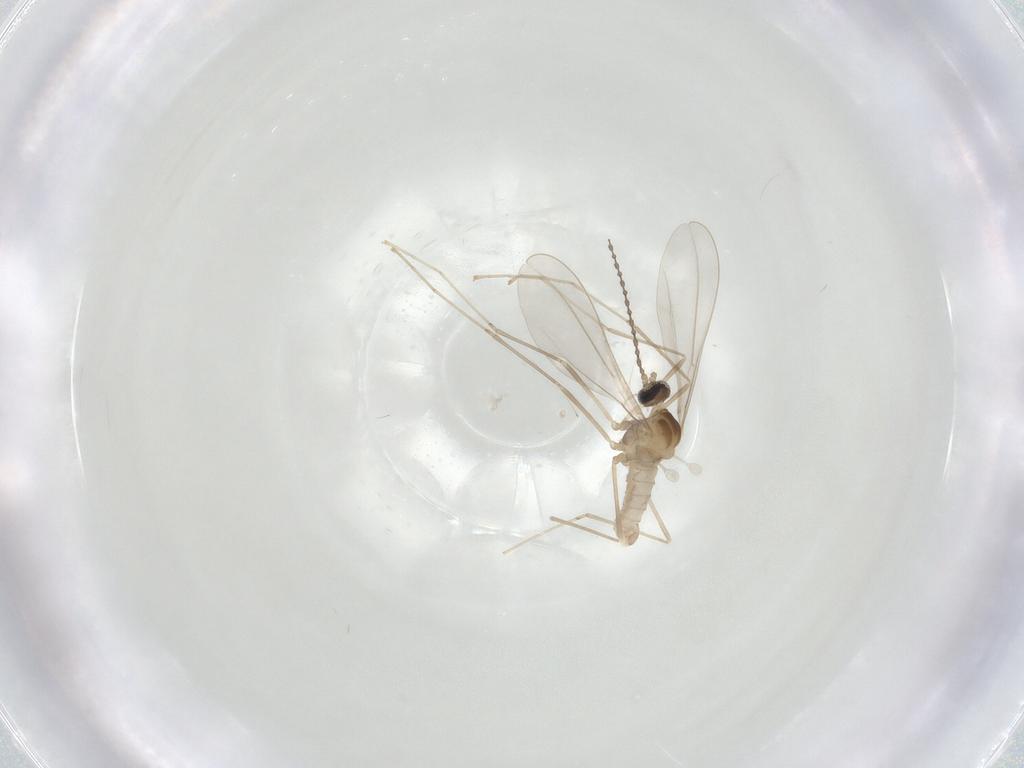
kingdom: Animalia
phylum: Arthropoda
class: Insecta
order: Diptera
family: Cecidomyiidae
